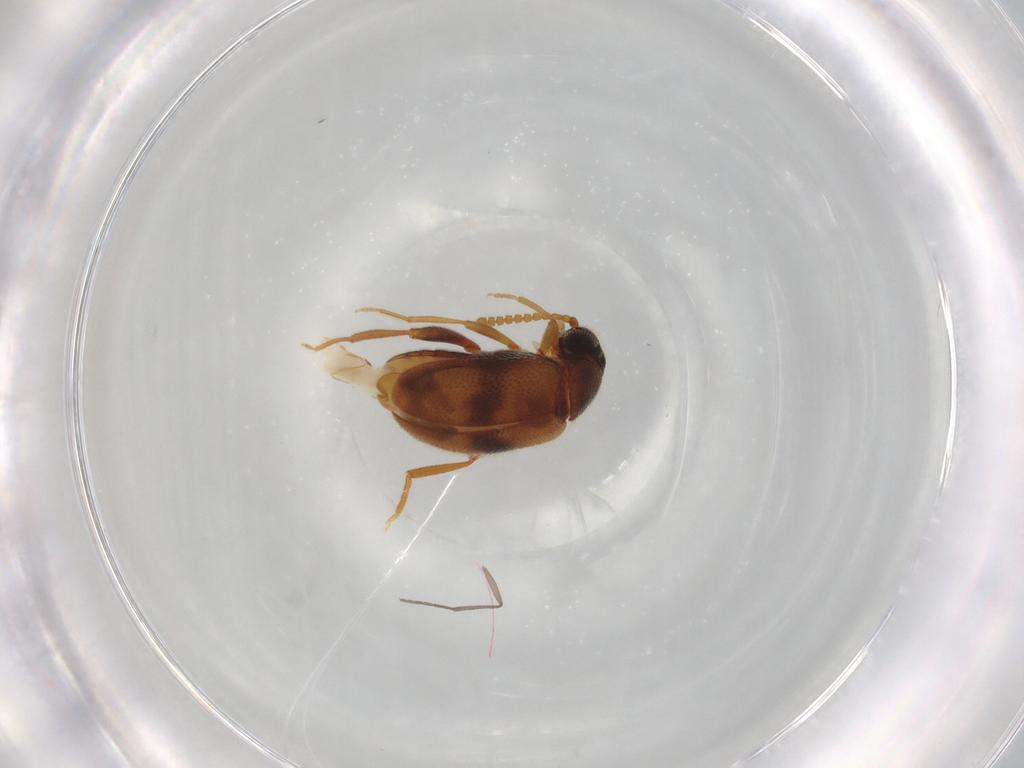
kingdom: Animalia
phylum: Arthropoda
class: Insecta
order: Coleoptera
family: Aderidae
